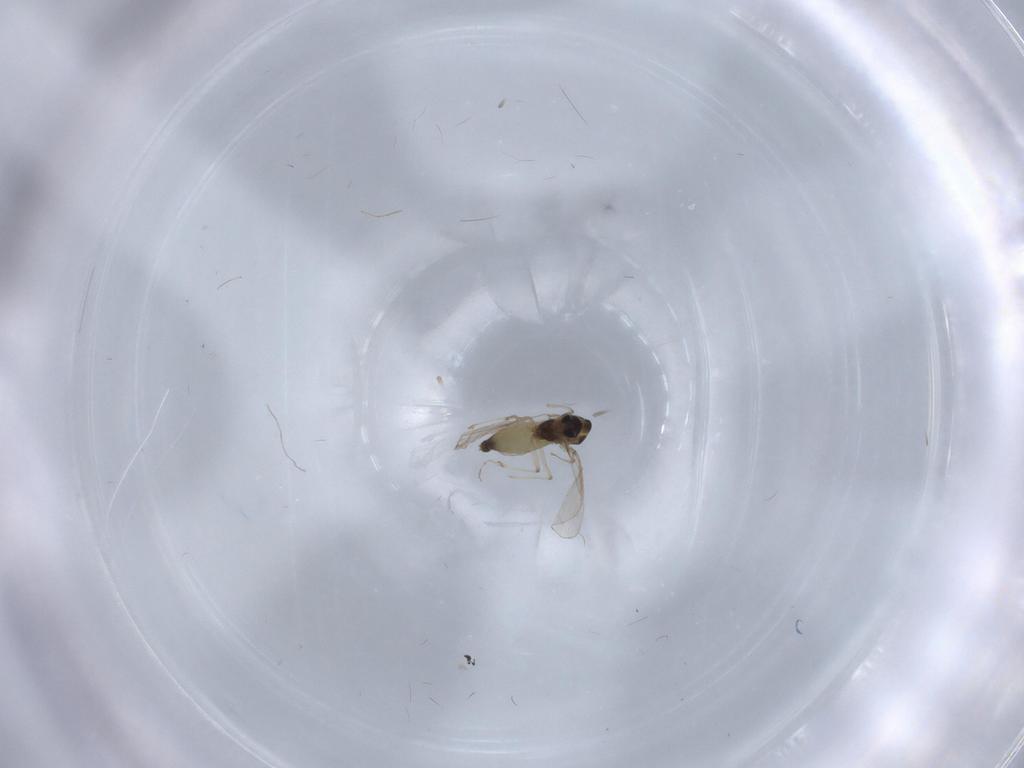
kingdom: Animalia
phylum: Arthropoda
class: Insecta
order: Diptera
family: Chironomidae
